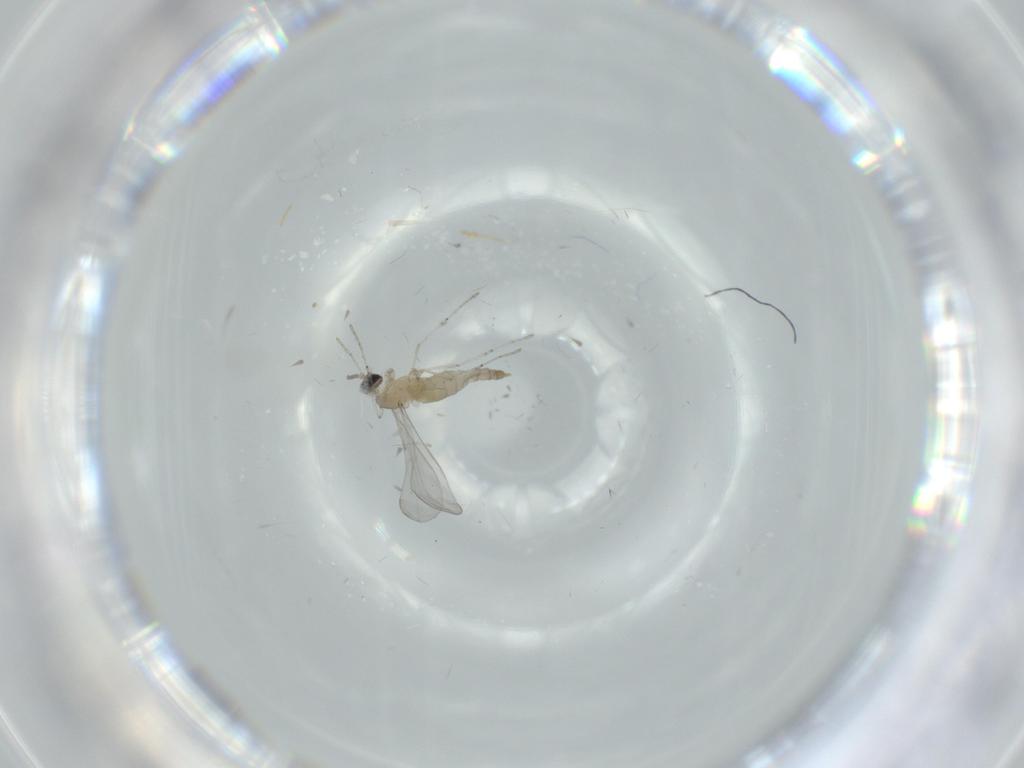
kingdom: Animalia
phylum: Arthropoda
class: Insecta
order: Diptera
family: Cecidomyiidae
